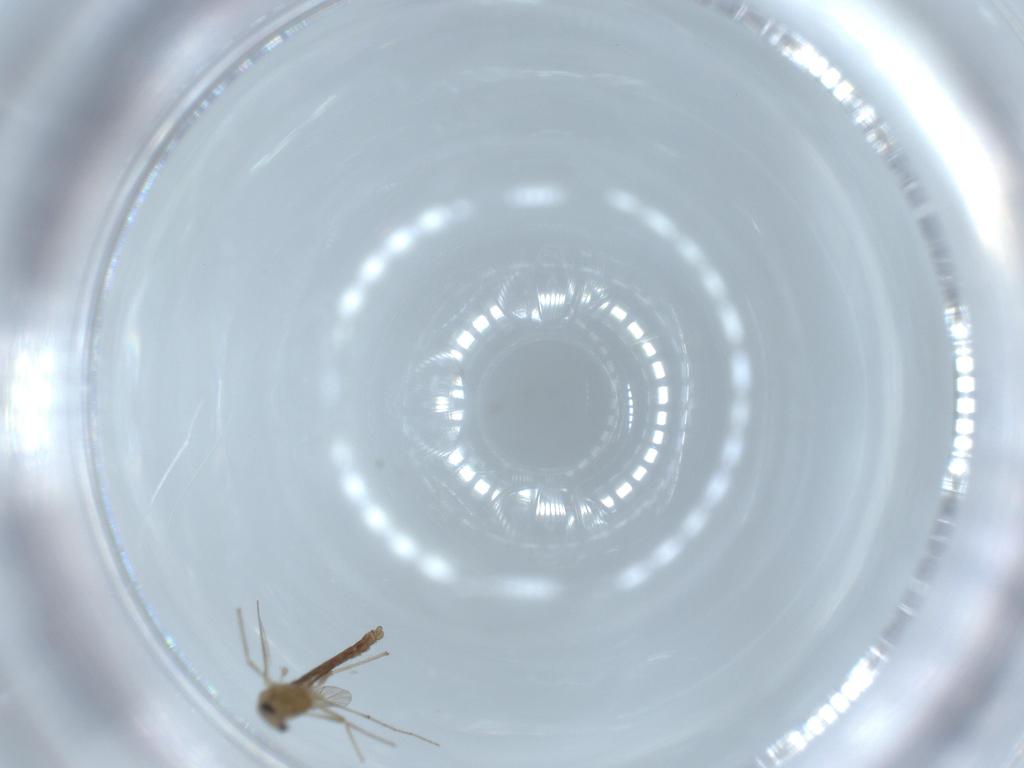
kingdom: Animalia
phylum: Arthropoda
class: Insecta
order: Diptera
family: Chironomidae
